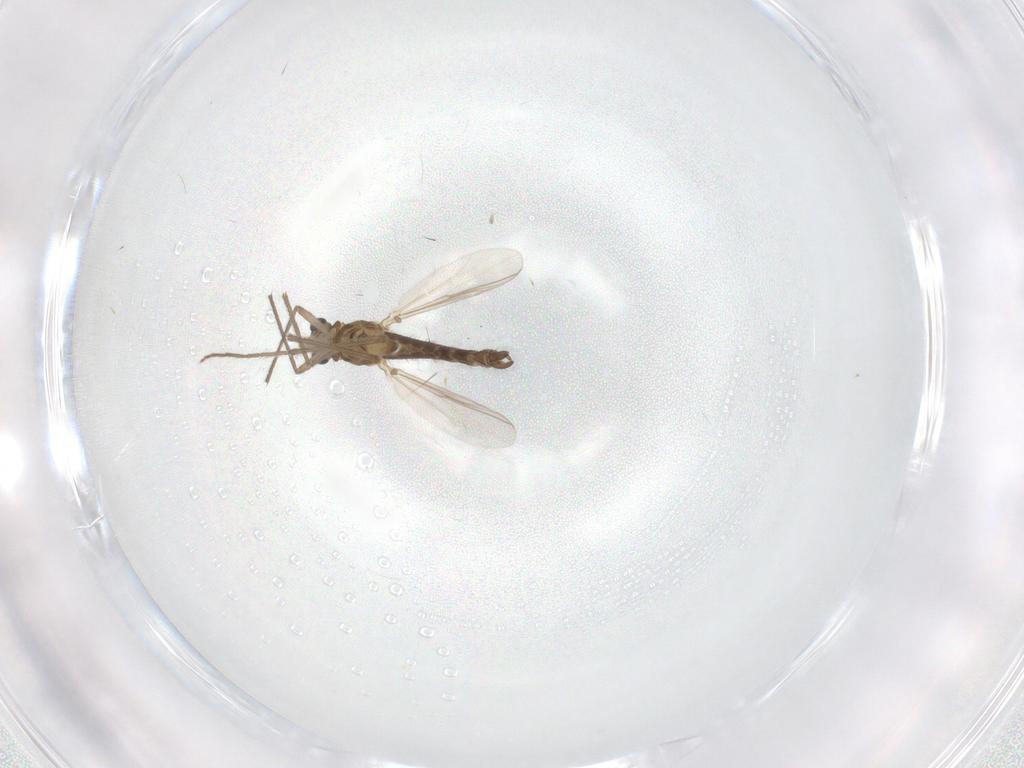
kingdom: Animalia
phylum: Arthropoda
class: Insecta
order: Diptera
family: Chironomidae
